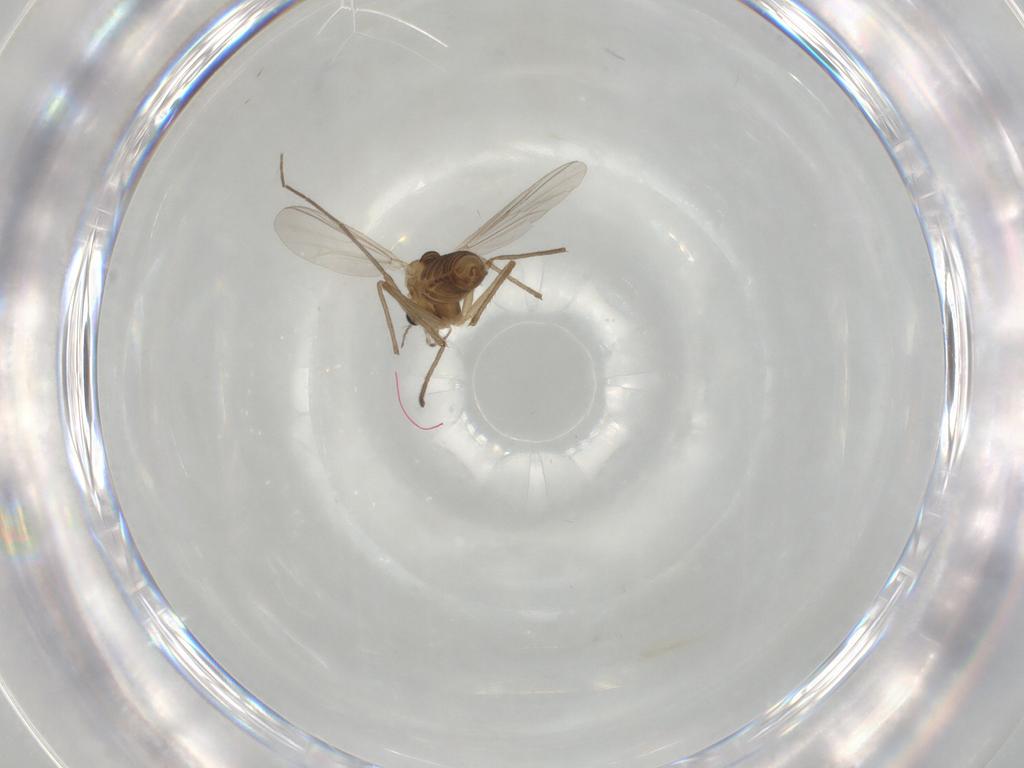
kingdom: Animalia
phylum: Arthropoda
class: Insecta
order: Diptera
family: Chironomidae
